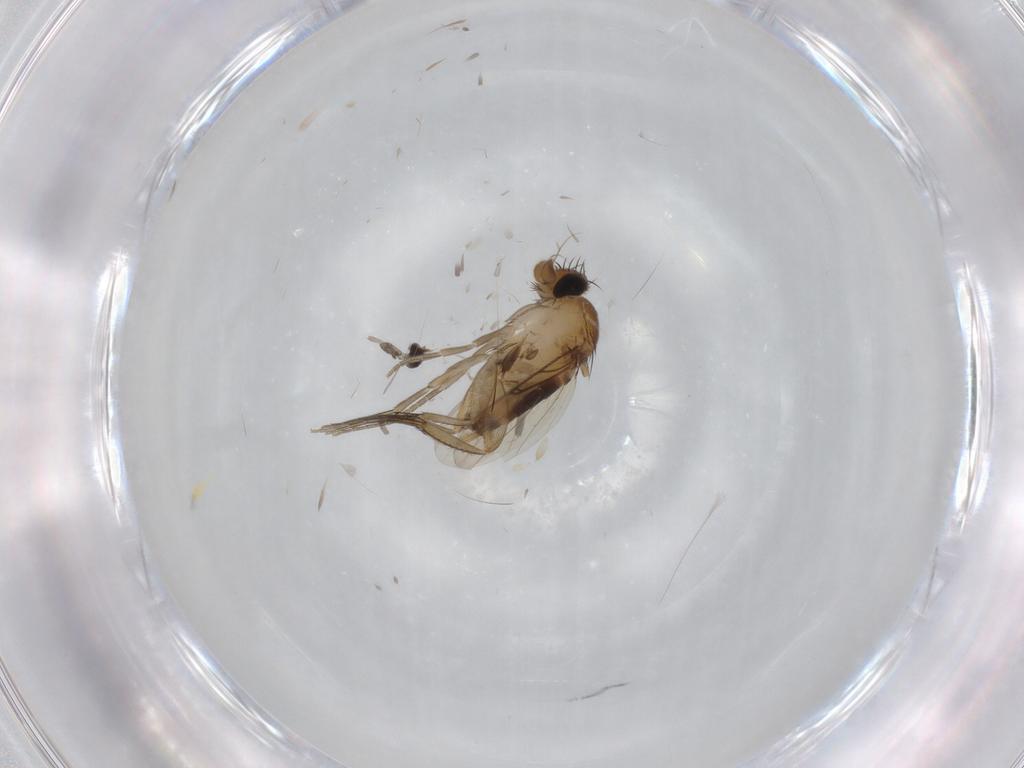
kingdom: Animalia
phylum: Arthropoda
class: Insecta
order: Diptera
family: Phoridae
